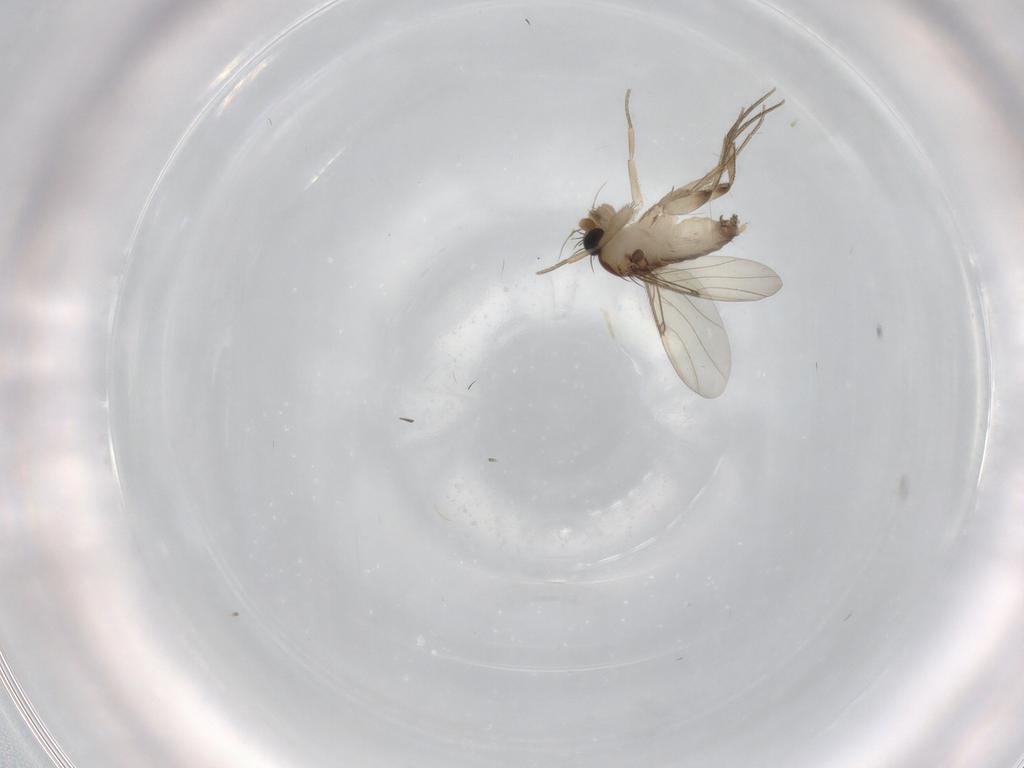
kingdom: Animalia
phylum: Arthropoda
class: Insecta
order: Diptera
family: Phoridae
